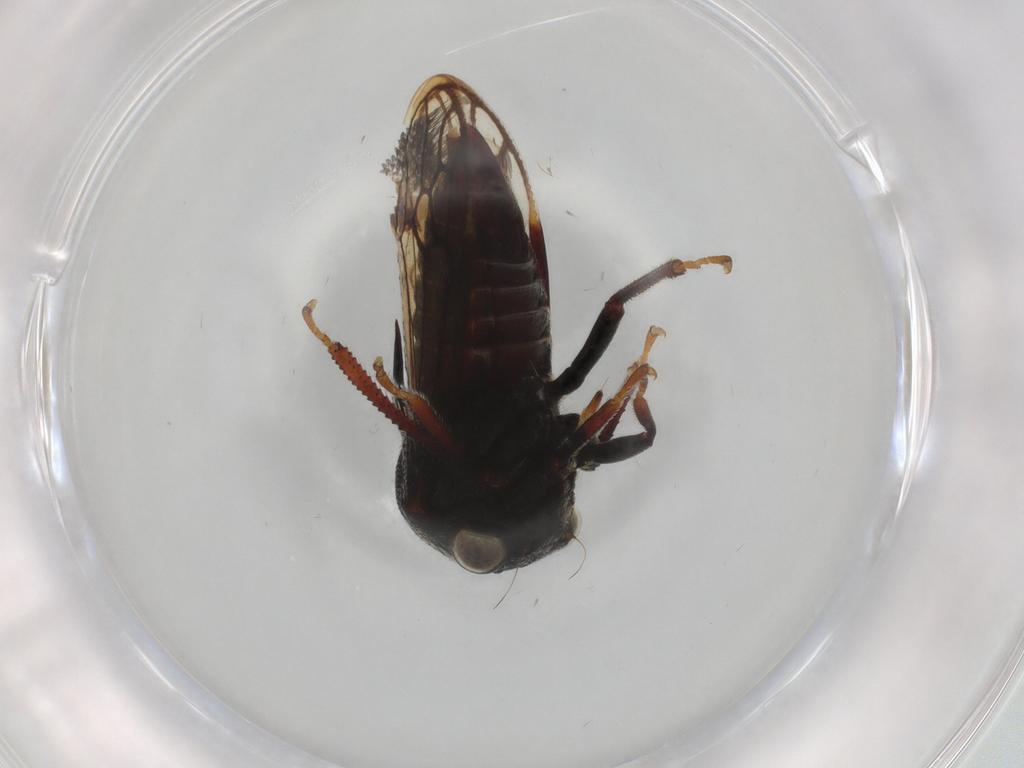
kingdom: Animalia
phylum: Arthropoda
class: Insecta
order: Hemiptera
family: Membracidae
